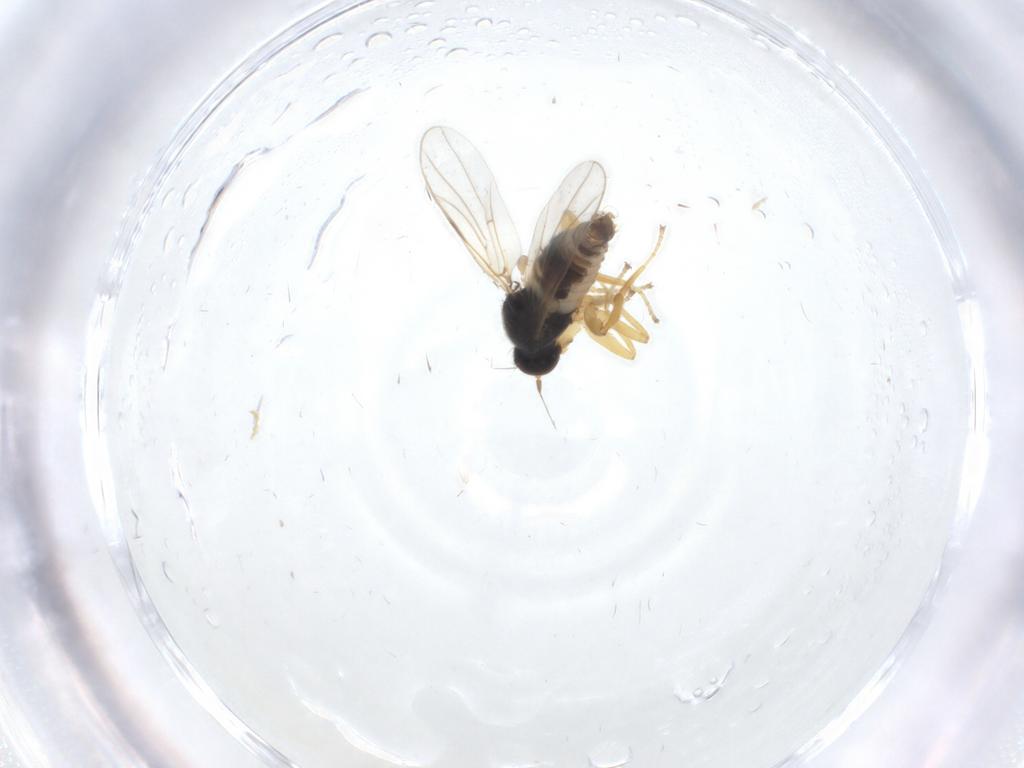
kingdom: Animalia
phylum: Arthropoda
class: Insecta
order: Diptera
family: Hybotidae
